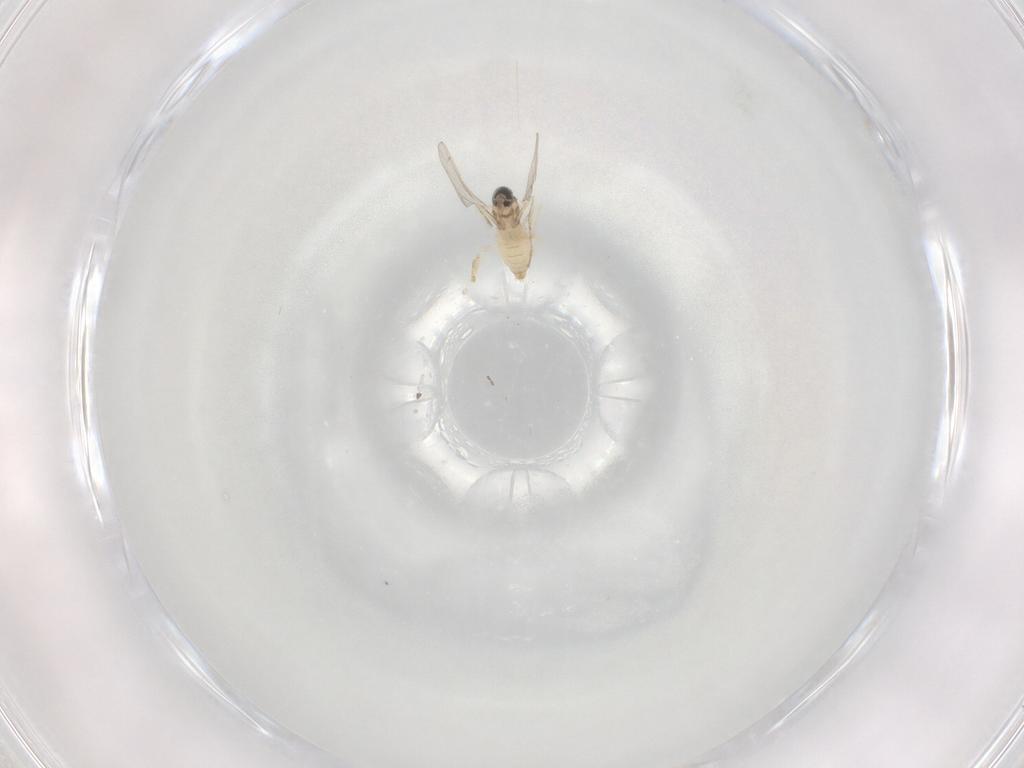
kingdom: Animalia
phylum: Arthropoda
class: Insecta
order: Diptera
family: Cecidomyiidae
